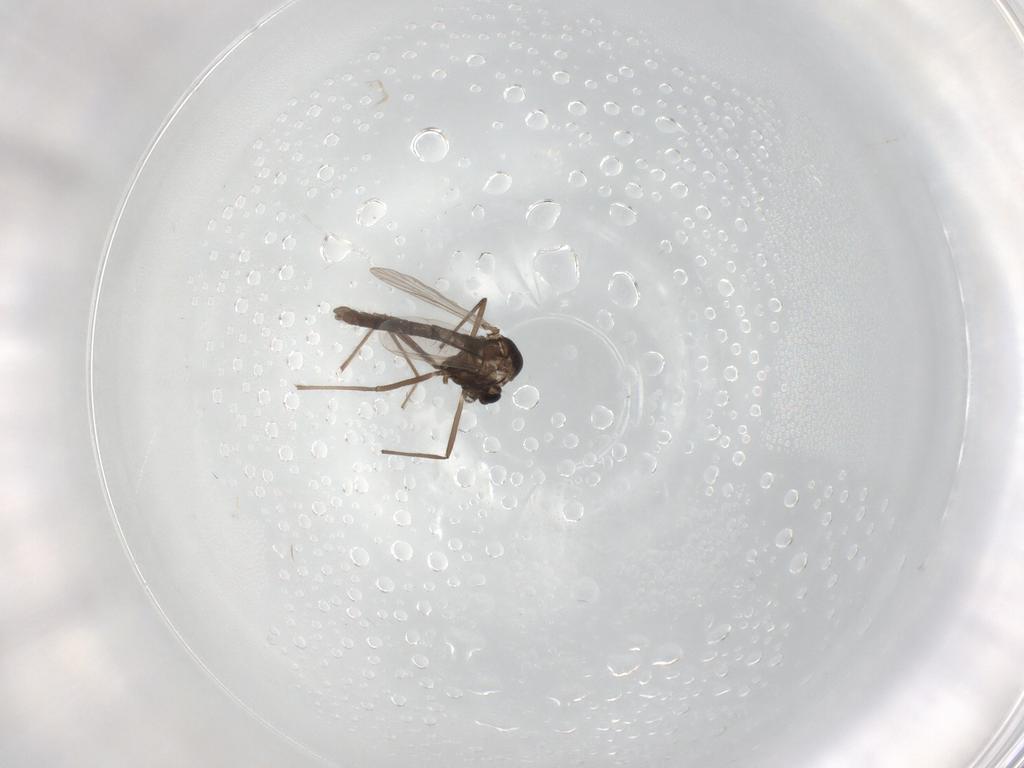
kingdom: Animalia
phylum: Arthropoda
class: Insecta
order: Diptera
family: Chironomidae
